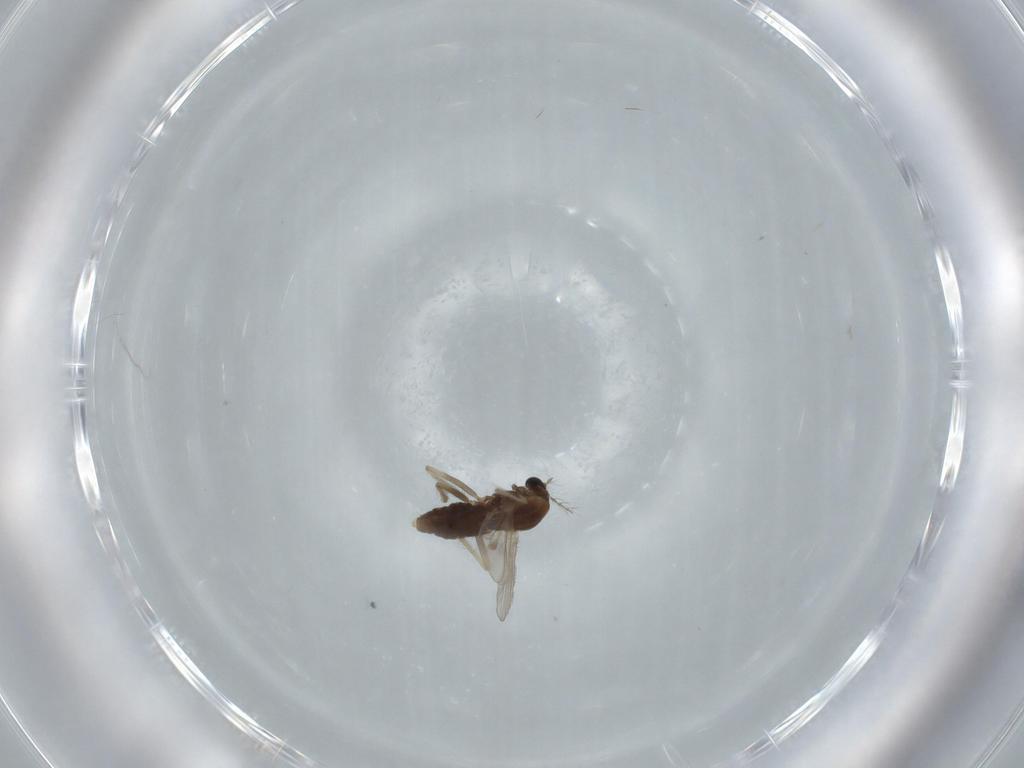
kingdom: Animalia
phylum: Arthropoda
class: Insecta
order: Diptera
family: Chironomidae
